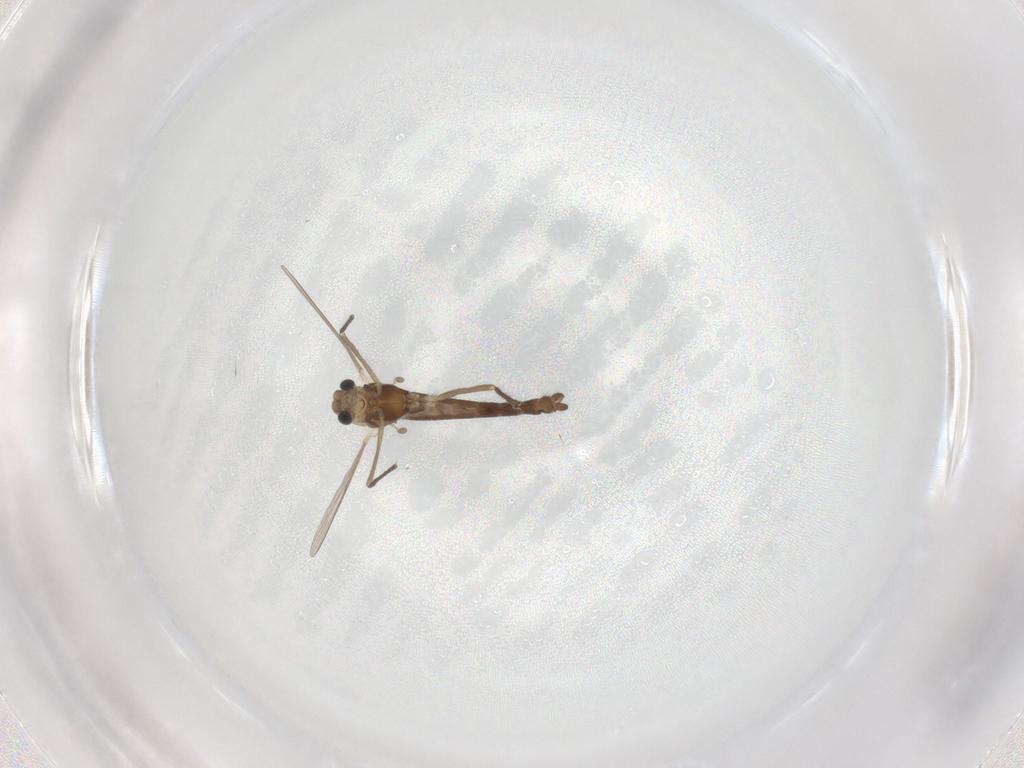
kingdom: Animalia
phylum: Arthropoda
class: Insecta
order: Diptera
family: Chironomidae
